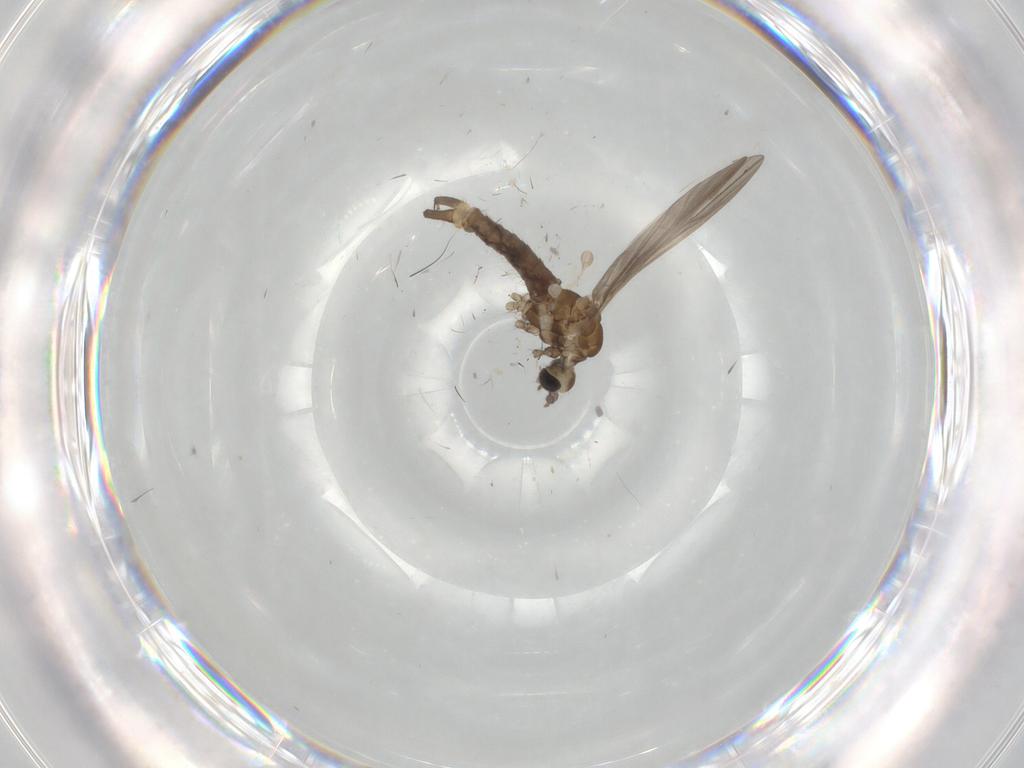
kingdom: Animalia
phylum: Arthropoda
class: Insecta
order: Diptera
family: Limoniidae
